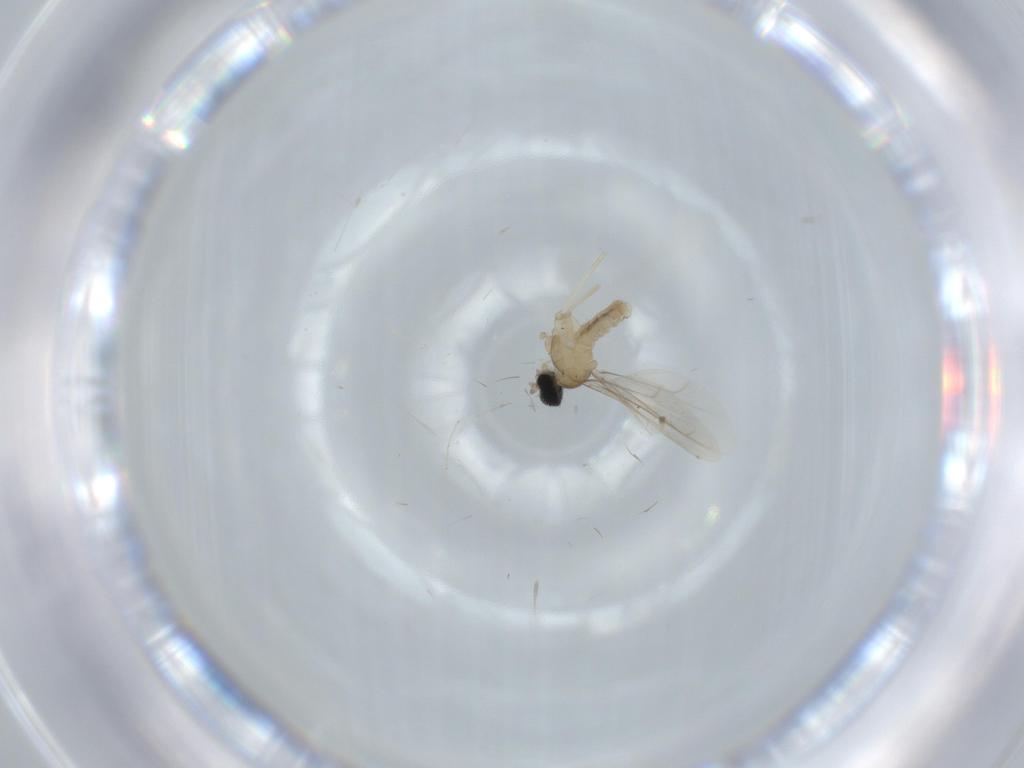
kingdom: Animalia
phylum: Arthropoda
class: Insecta
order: Diptera
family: Cecidomyiidae
